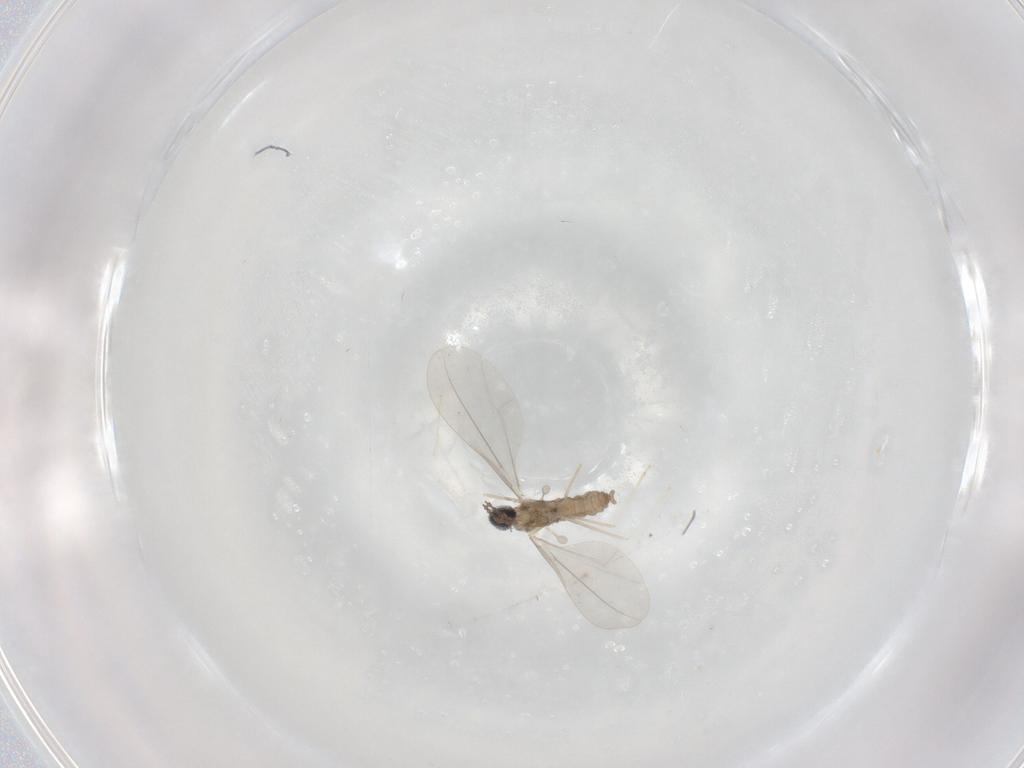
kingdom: Animalia
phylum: Arthropoda
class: Insecta
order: Diptera
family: Cecidomyiidae
